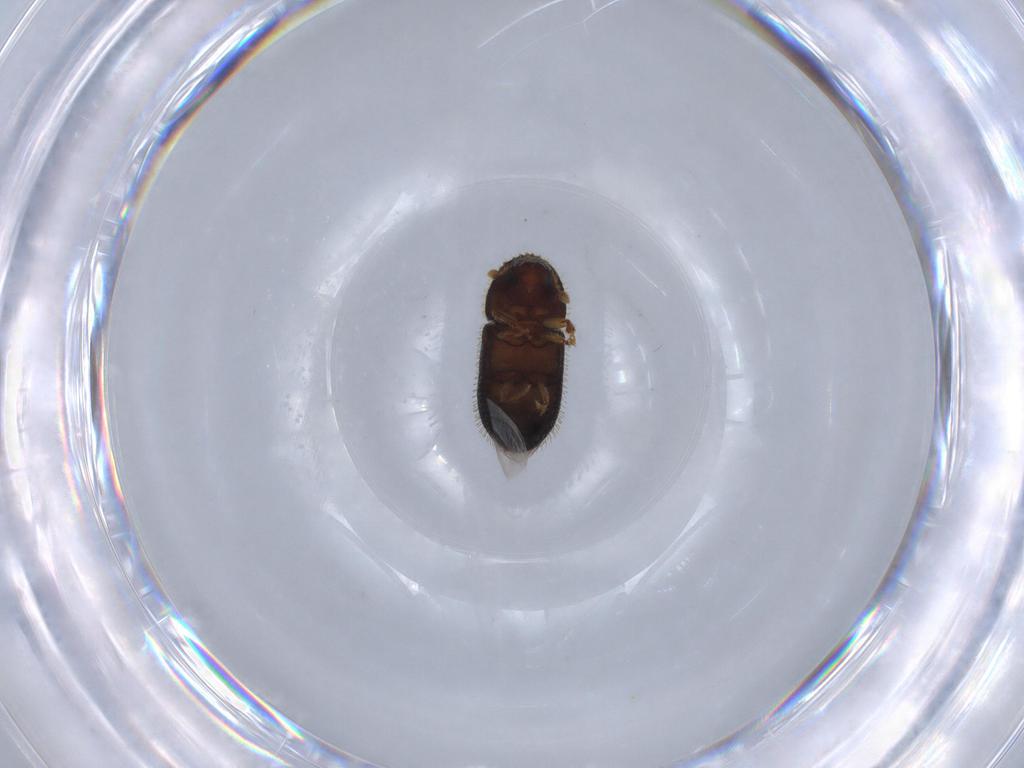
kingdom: Animalia
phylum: Arthropoda
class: Insecta
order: Coleoptera
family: Curculionidae
